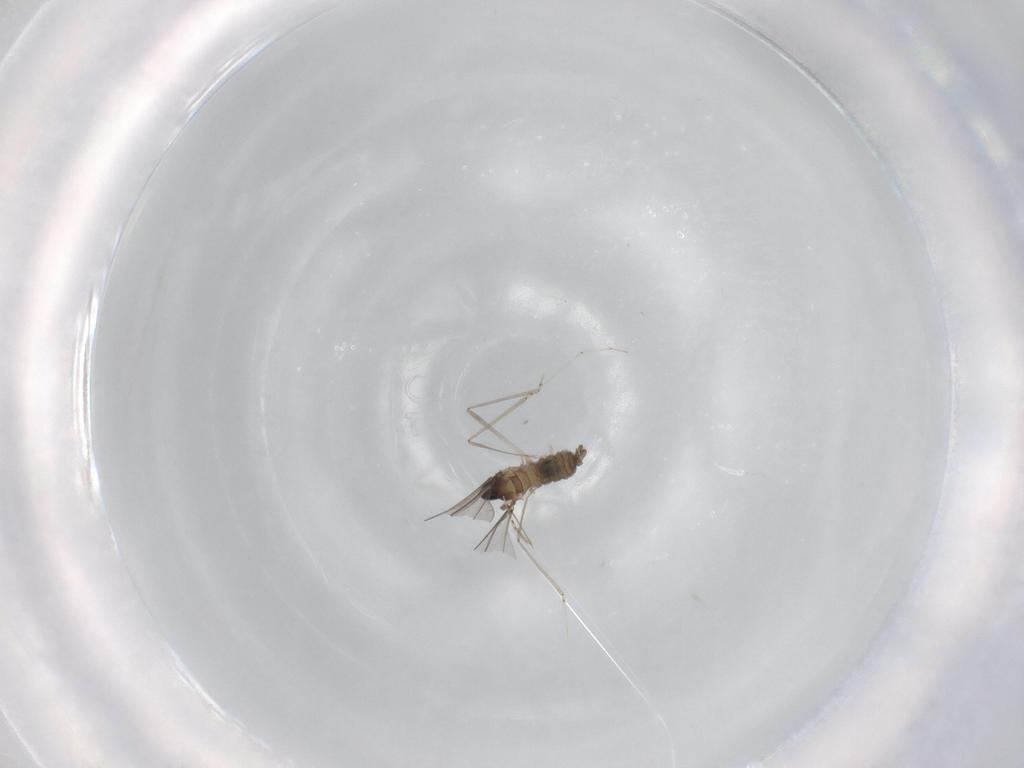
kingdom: Animalia
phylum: Arthropoda
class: Insecta
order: Diptera
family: Cecidomyiidae
